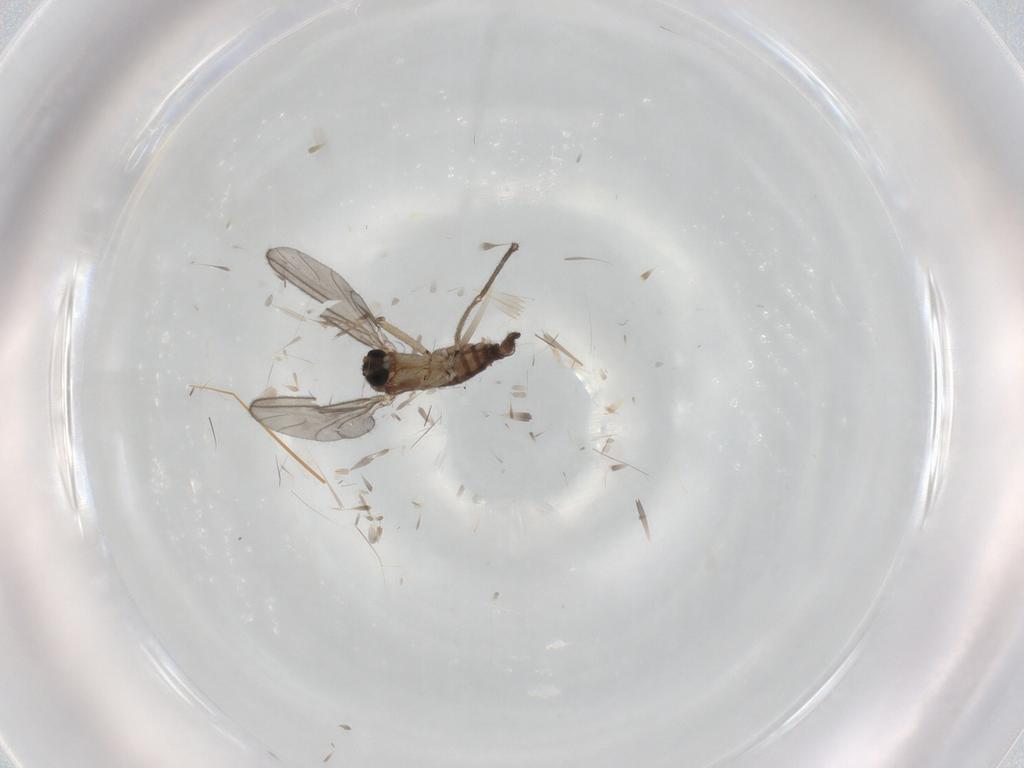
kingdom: Animalia
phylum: Arthropoda
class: Insecta
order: Diptera
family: Sciaridae
